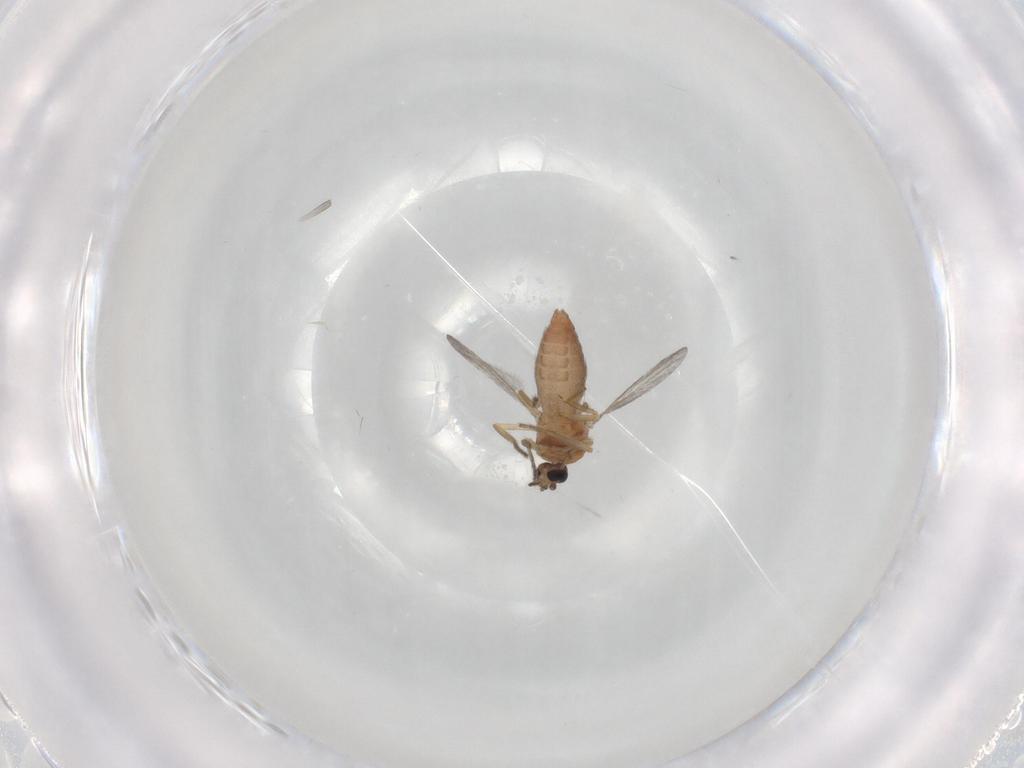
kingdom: Animalia
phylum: Arthropoda
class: Insecta
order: Diptera
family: Ceratopogonidae
